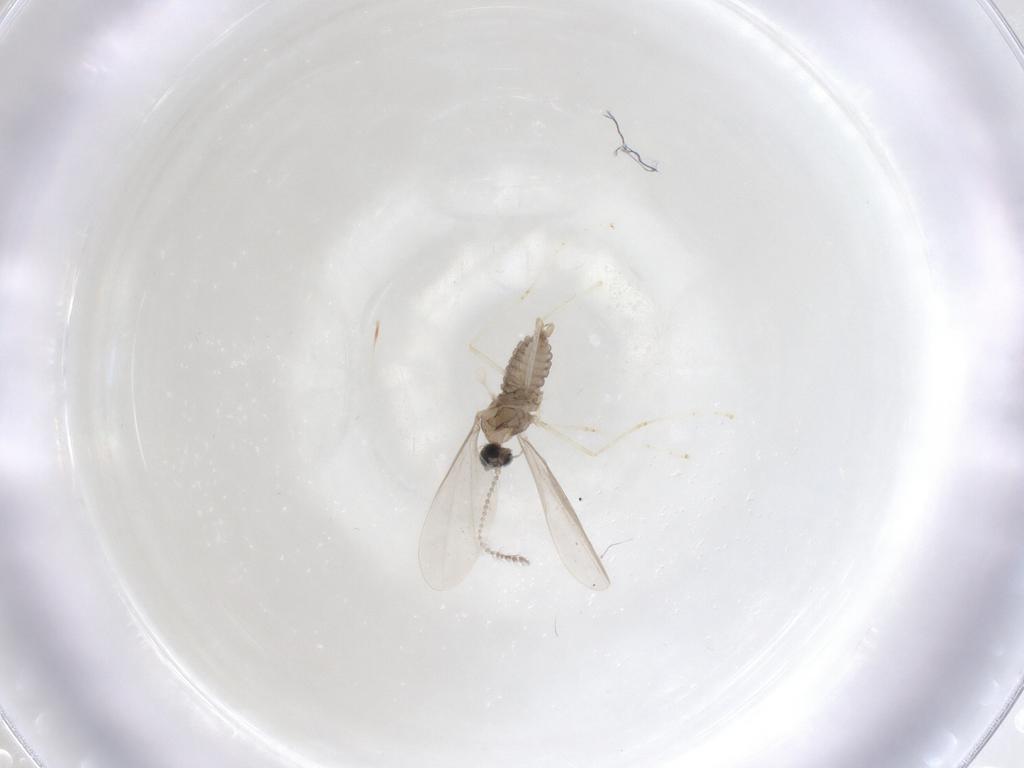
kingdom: Animalia
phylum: Arthropoda
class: Insecta
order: Diptera
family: Cecidomyiidae
